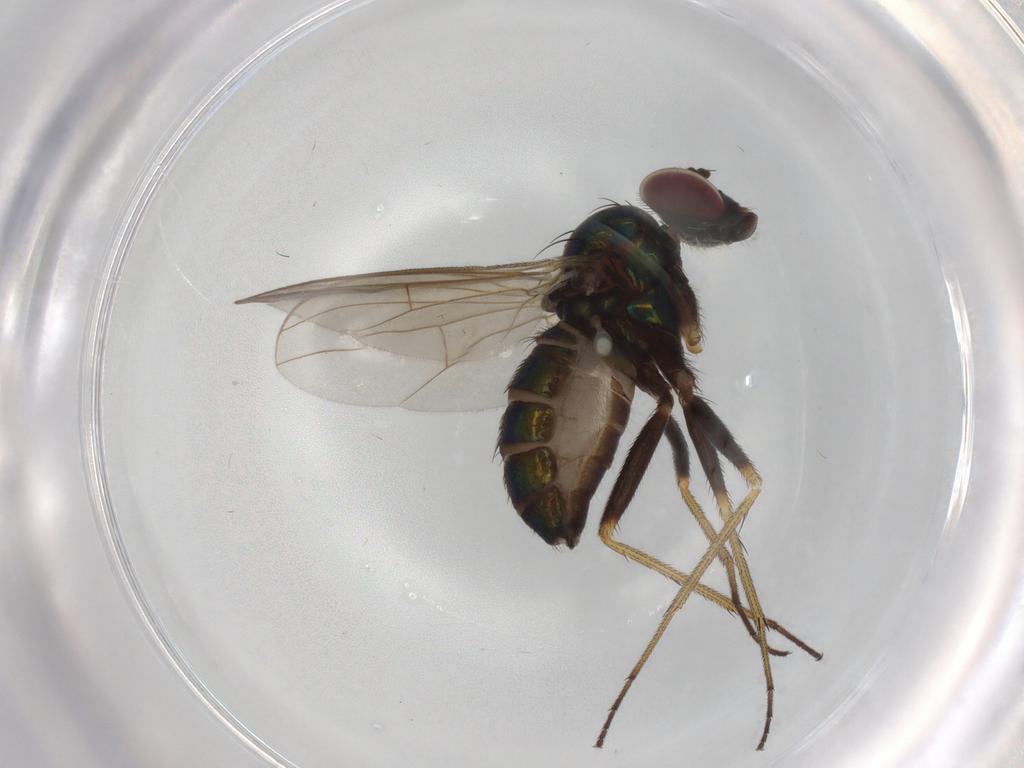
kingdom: Animalia
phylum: Arthropoda
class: Insecta
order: Diptera
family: Dolichopodidae
